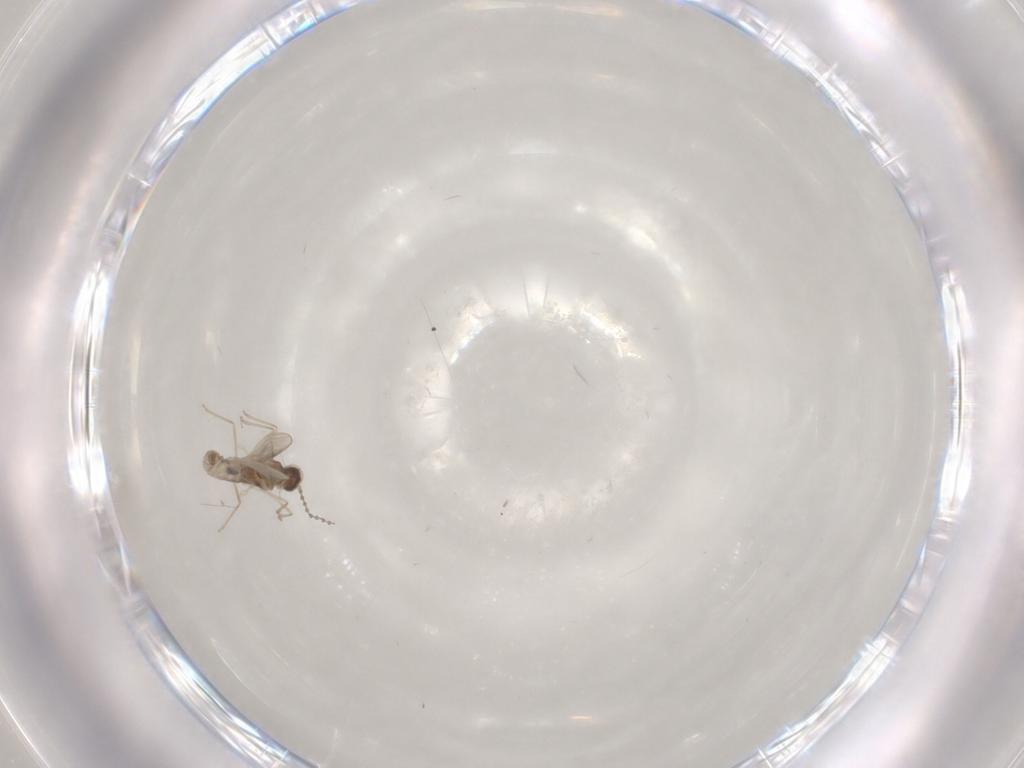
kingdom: Animalia
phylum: Arthropoda
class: Insecta
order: Diptera
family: Cecidomyiidae
